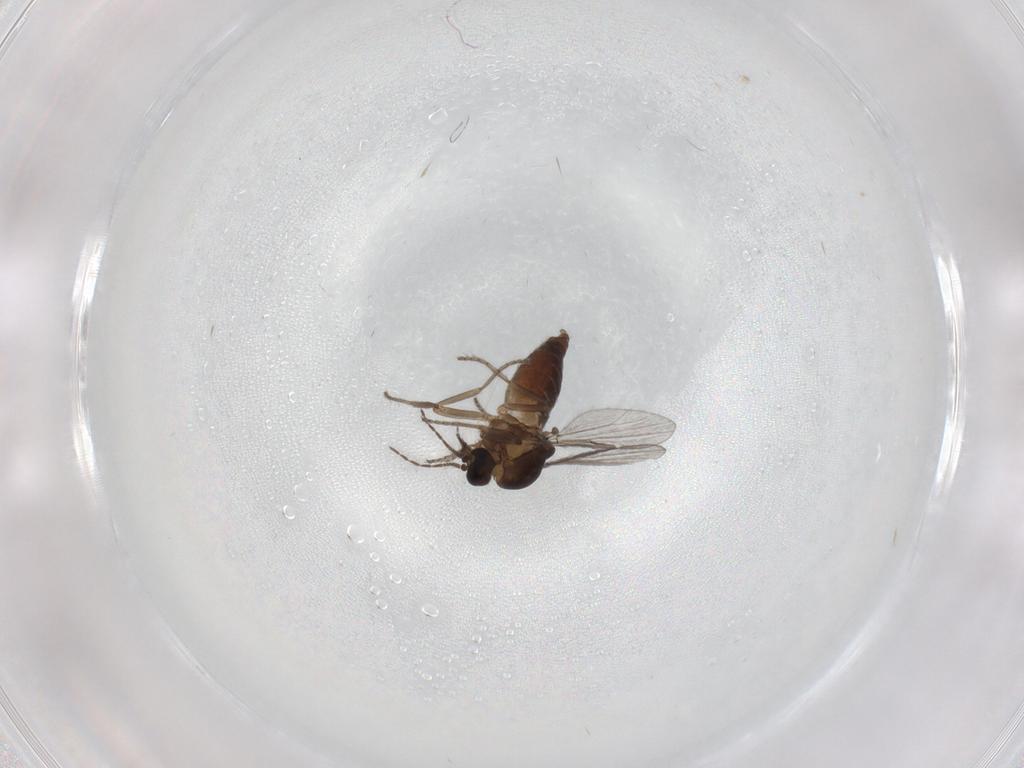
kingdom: Animalia
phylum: Arthropoda
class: Insecta
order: Diptera
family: Ceratopogonidae
